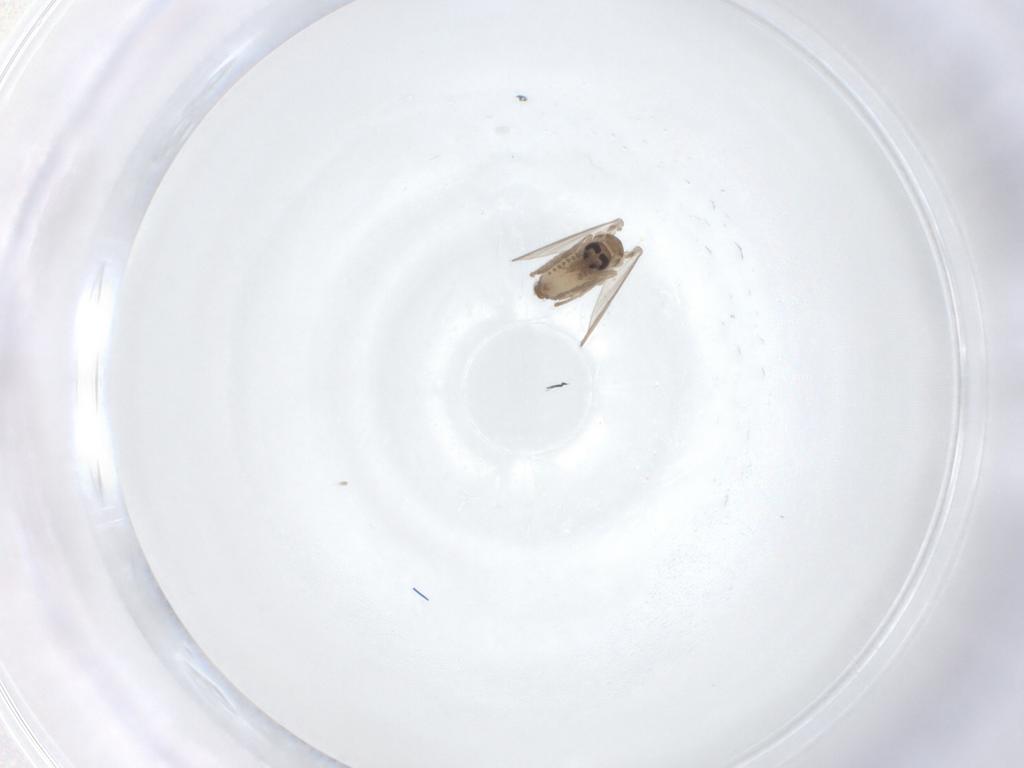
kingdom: Animalia
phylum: Arthropoda
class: Insecta
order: Diptera
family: Psychodidae
